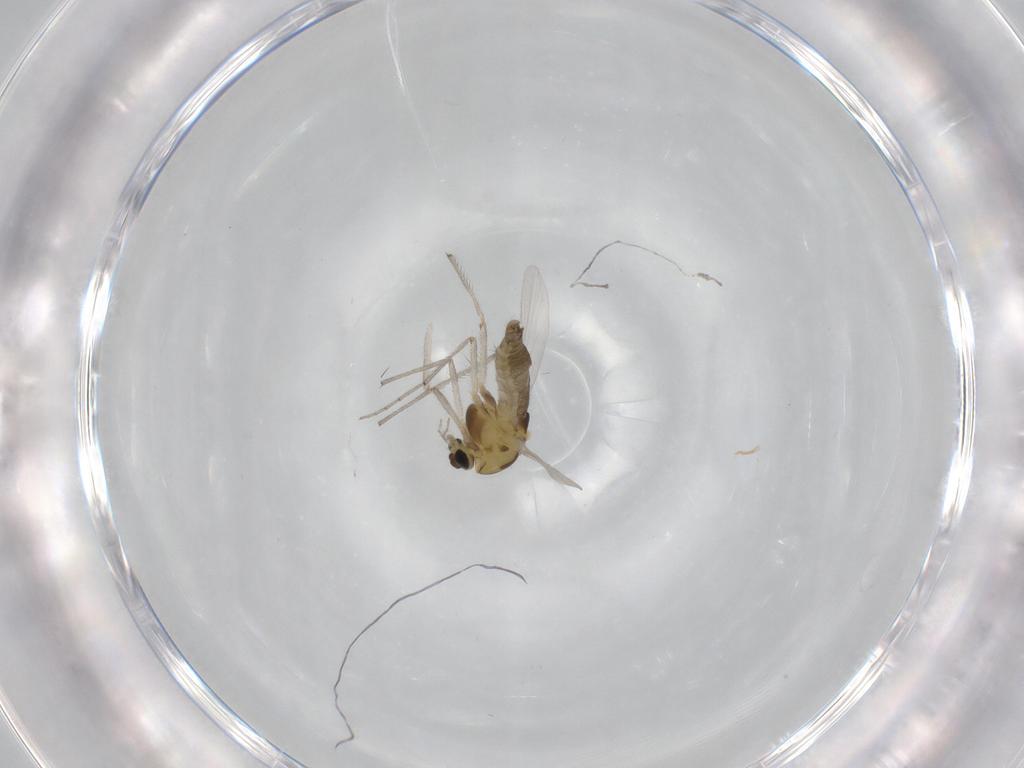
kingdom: Animalia
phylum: Arthropoda
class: Insecta
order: Diptera
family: Chironomidae
